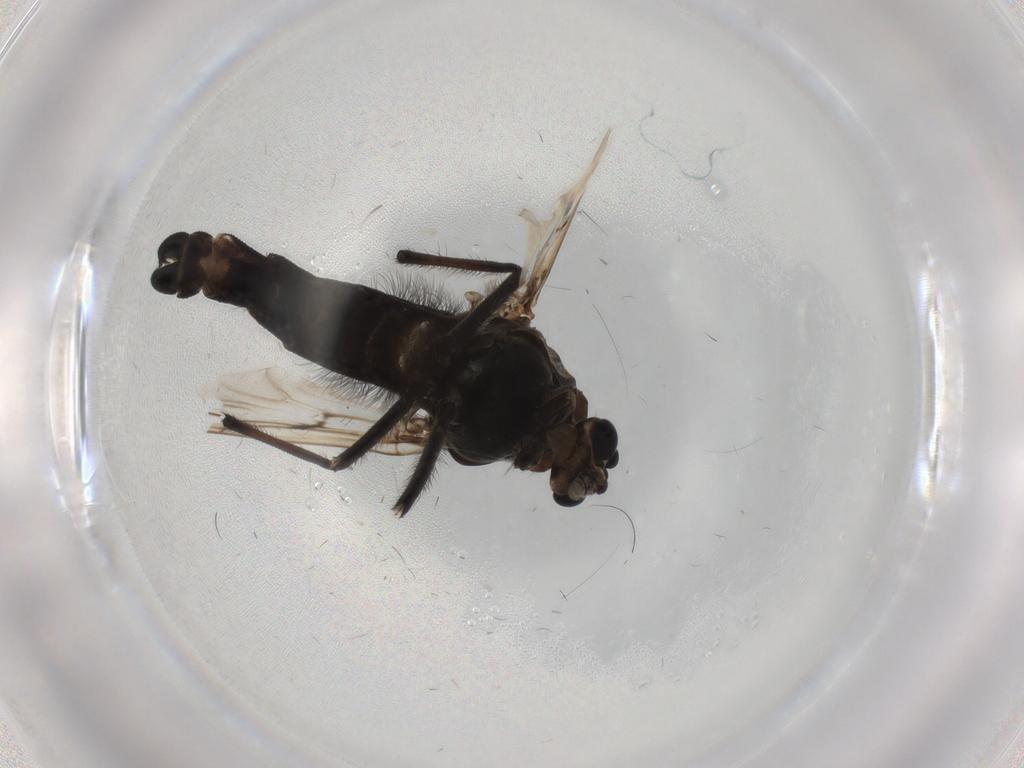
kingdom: Animalia
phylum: Arthropoda
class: Insecta
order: Diptera
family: Chironomidae
